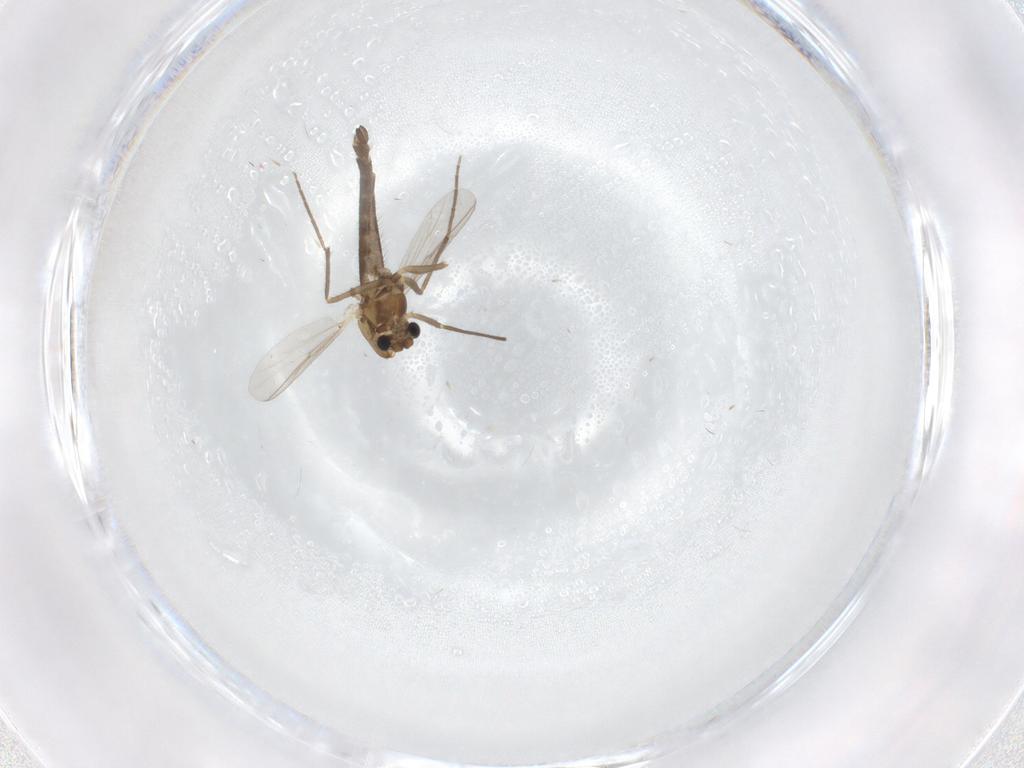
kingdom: Animalia
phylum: Arthropoda
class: Insecta
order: Diptera
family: Chironomidae
